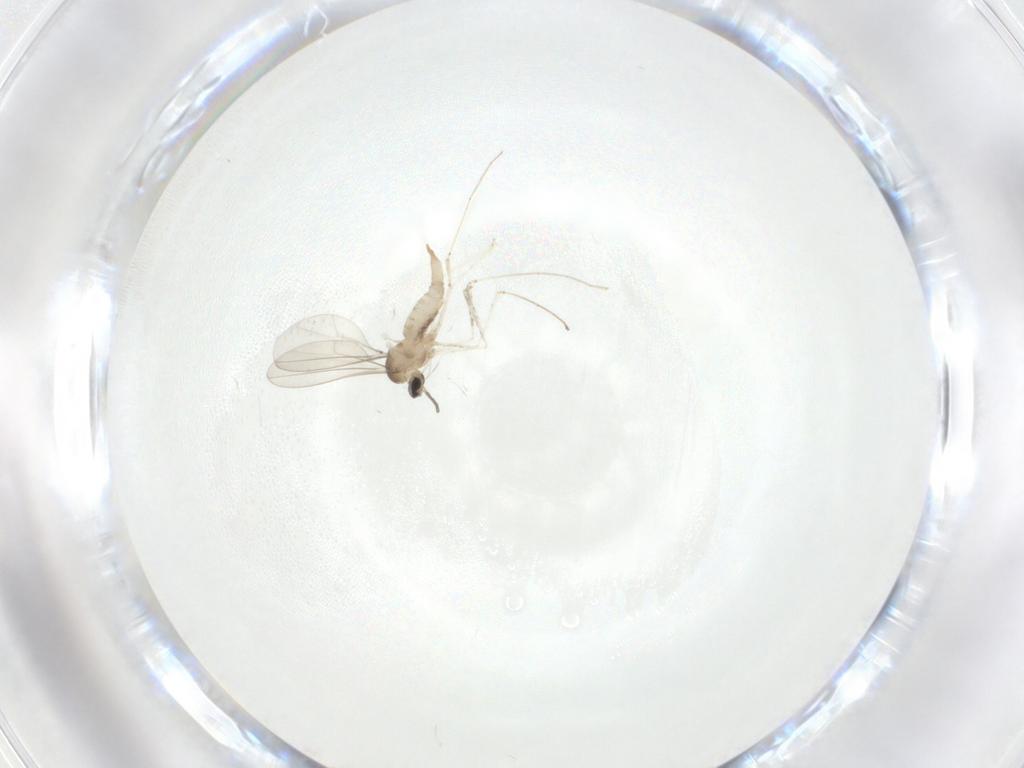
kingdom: Animalia
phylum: Arthropoda
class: Insecta
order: Diptera
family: Cecidomyiidae
